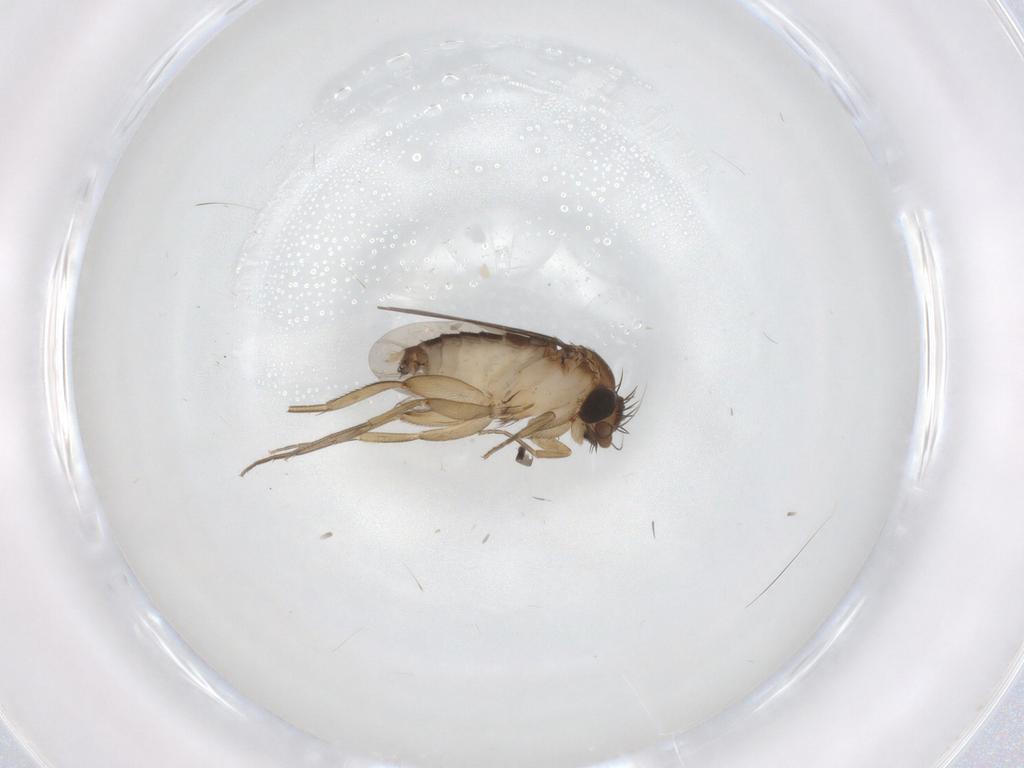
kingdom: Animalia
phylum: Arthropoda
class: Insecta
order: Diptera
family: Phoridae
